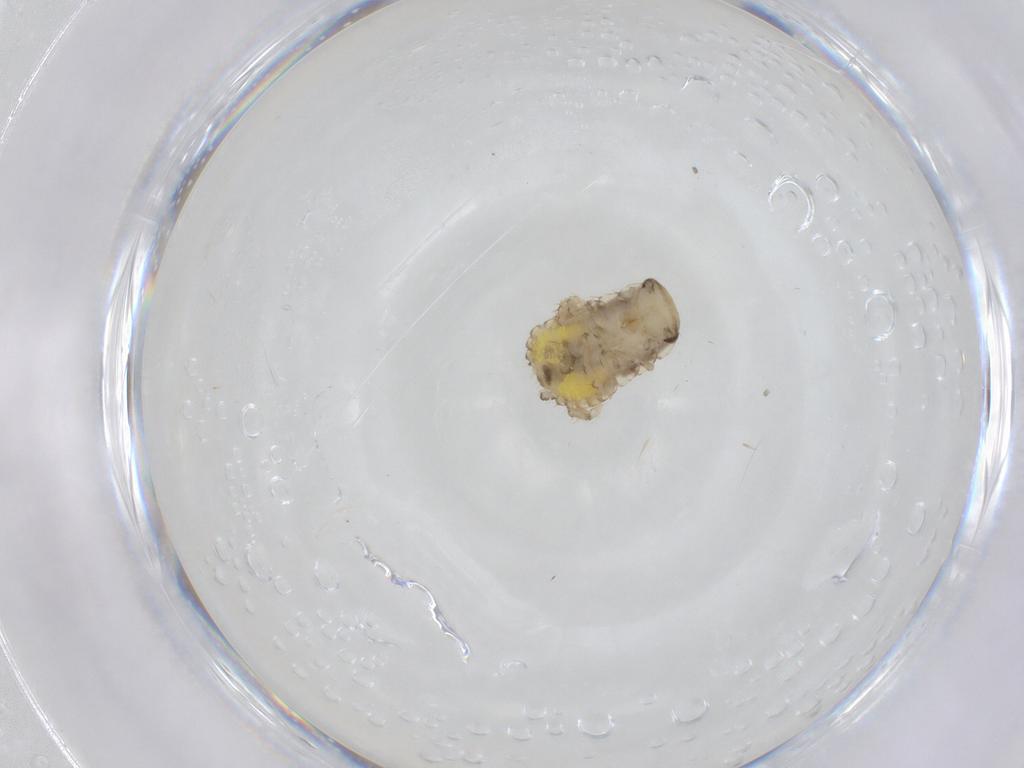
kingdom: Animalia
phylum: Arthropoda
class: Insecta
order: Blattodea
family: Ectobiidae
